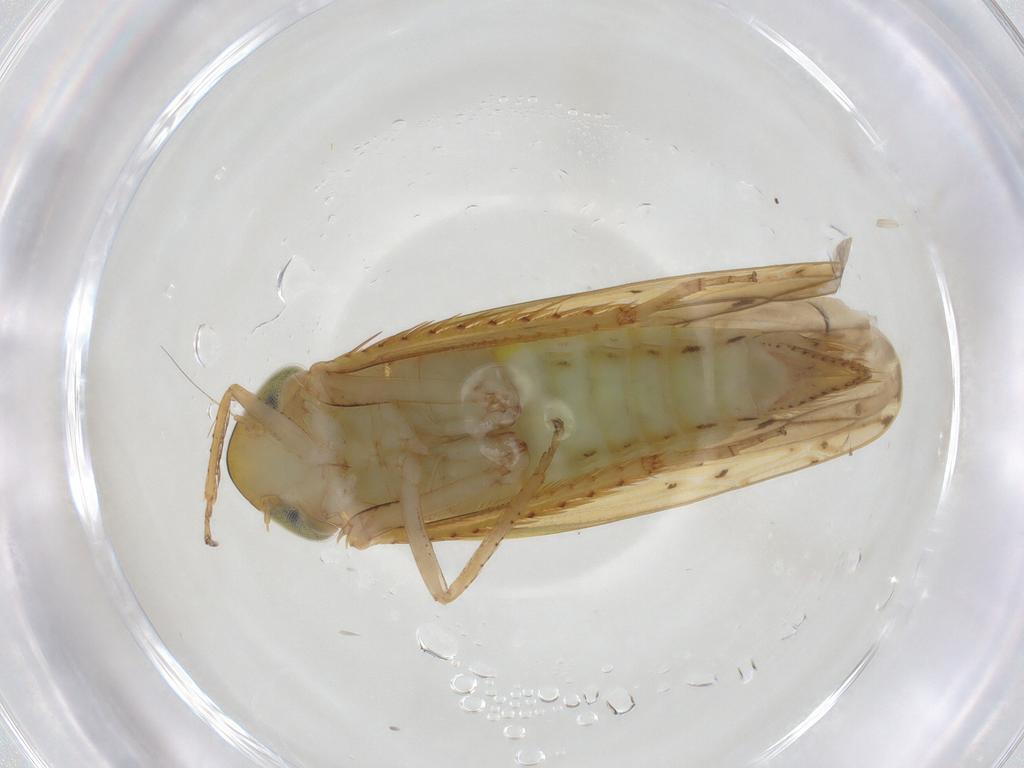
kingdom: Animalia
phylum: Arthropoda
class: Insecta
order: Hemiptera
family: Cicadellidae
